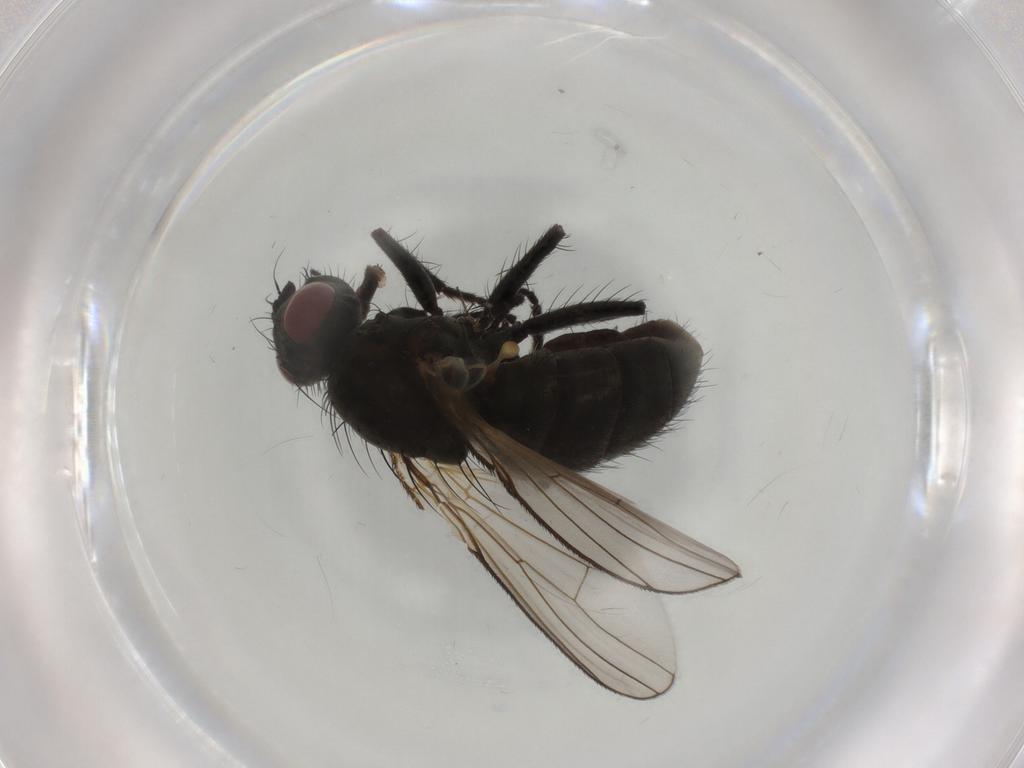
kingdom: Animalia
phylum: Arthropoda
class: Insecta
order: Diptera
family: Muscidae
